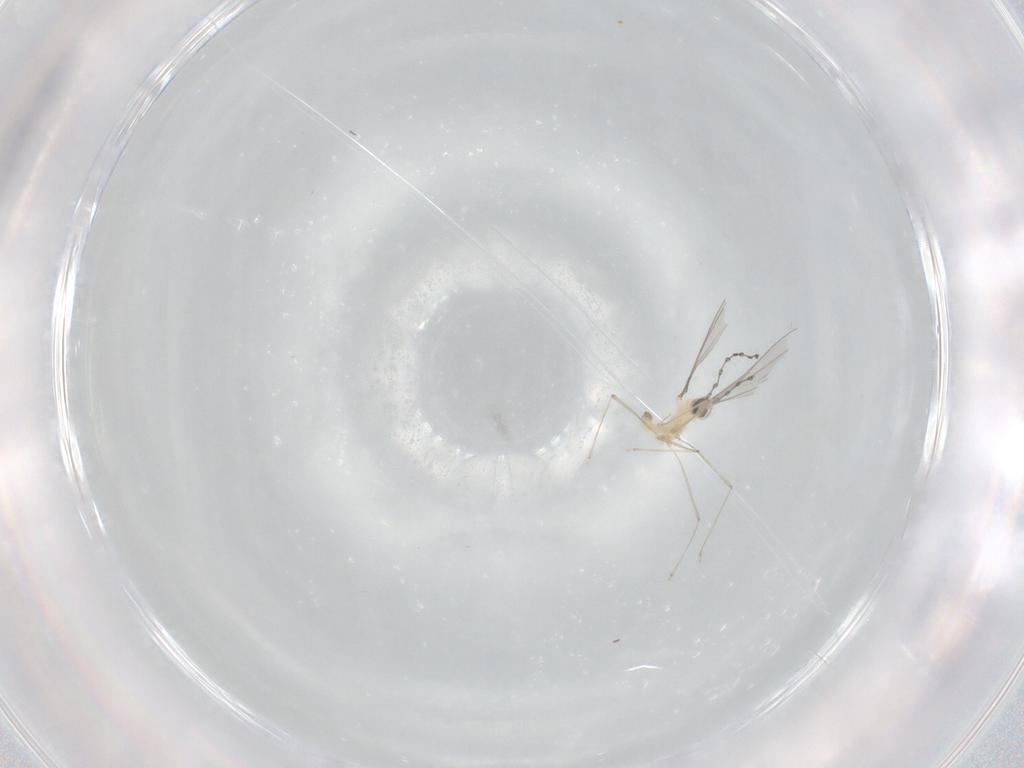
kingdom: Animalia
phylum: Arthropoda
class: Insecta
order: Diptera
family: Cecidomyiidae
